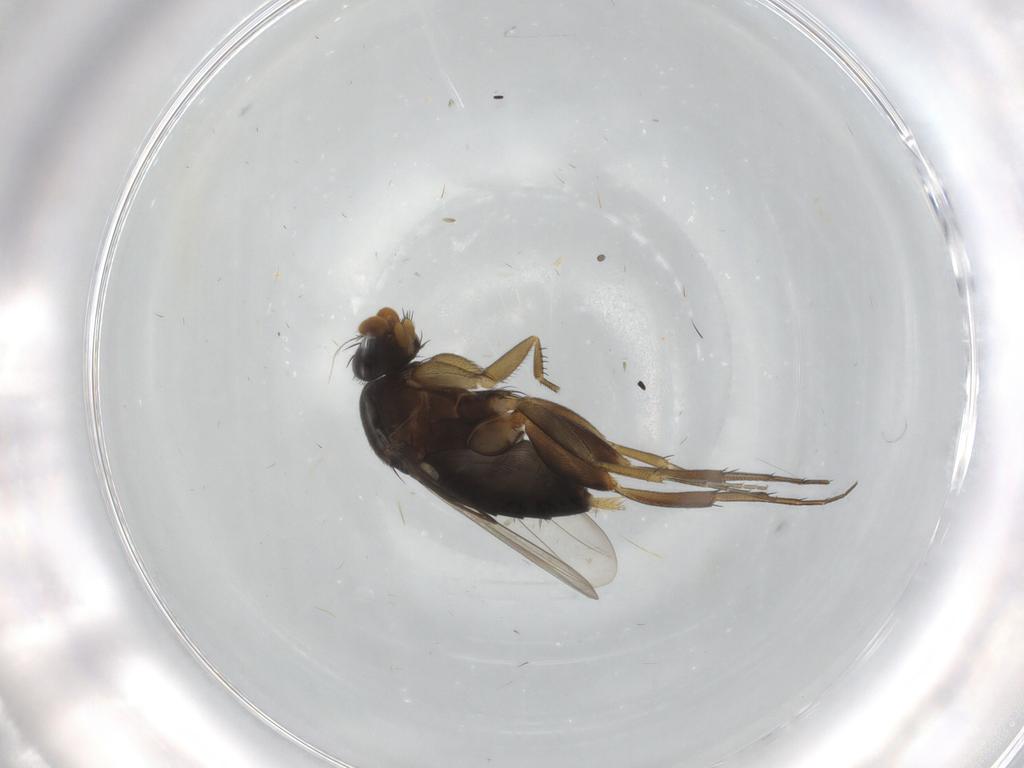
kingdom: Animalia
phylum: Arthropoda
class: Insecta
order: Diptera
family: Phoridae
